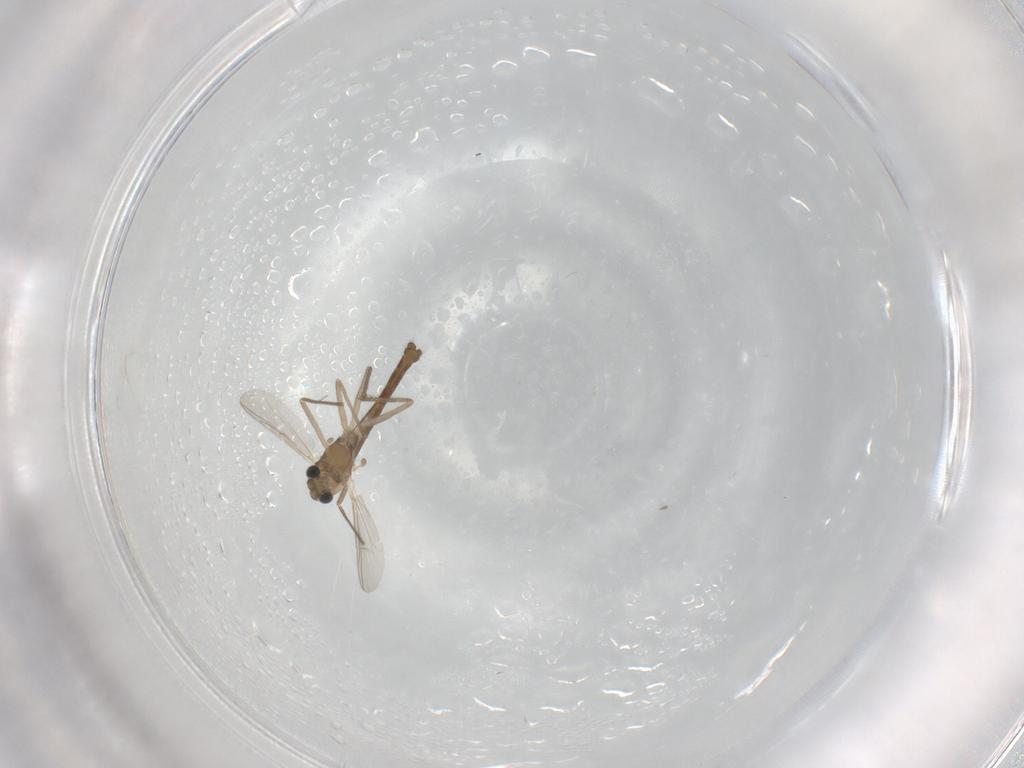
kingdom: Animalia
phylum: Arthropoda
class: Insecta
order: Diptera
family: Chironomidae
